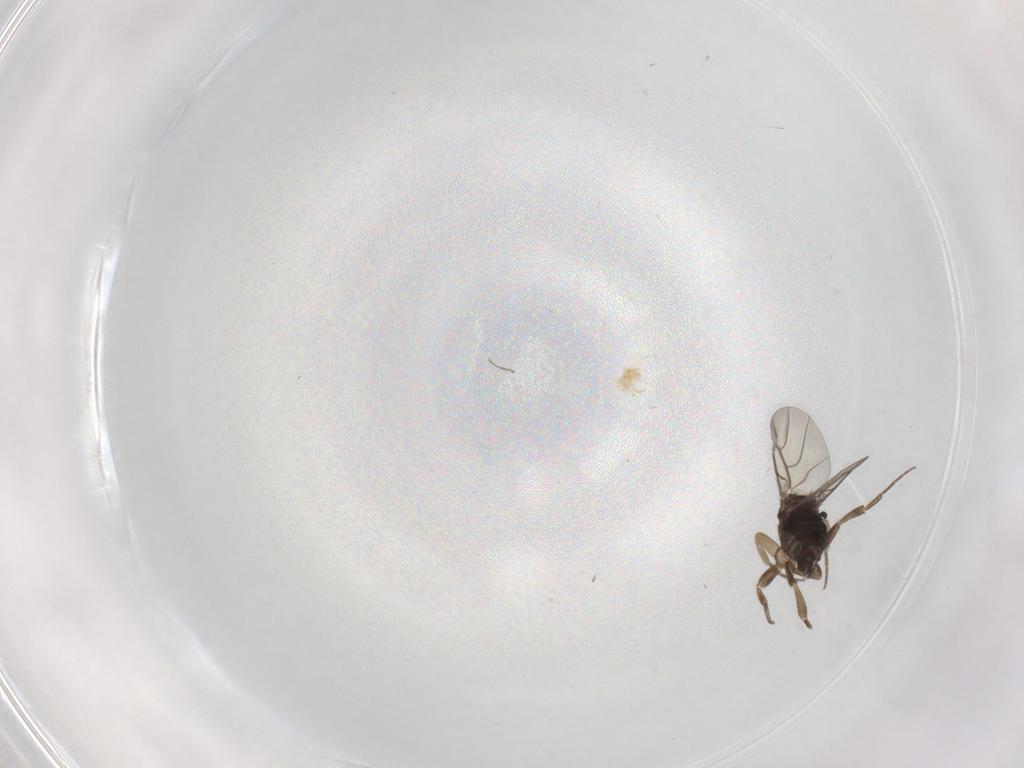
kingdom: Animalia
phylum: Arthropoda
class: Insecta
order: Diptera
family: Phoridae
